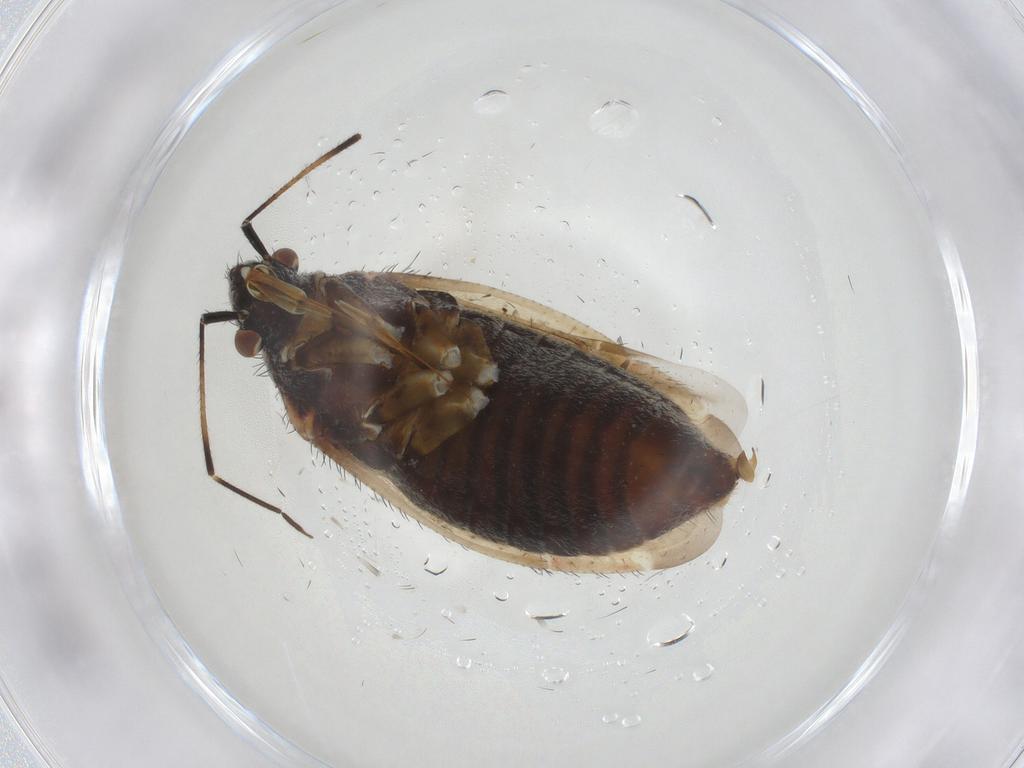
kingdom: Animalia
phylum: Arthropoda
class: Insecta
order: Hemiptera
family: Miridae
